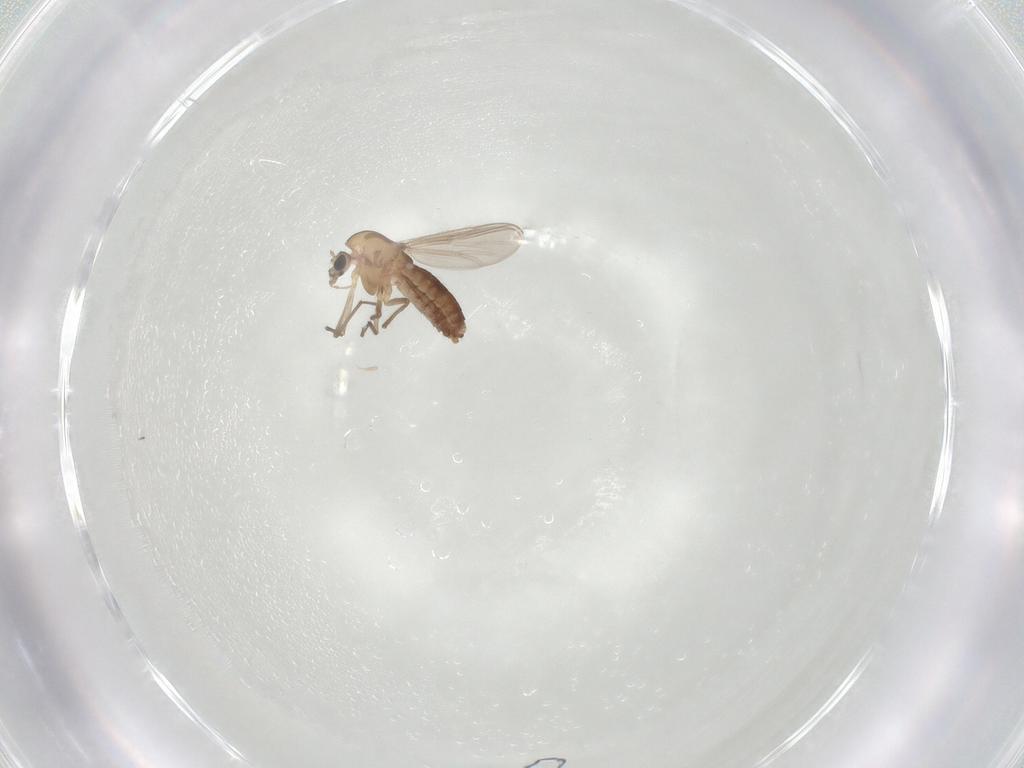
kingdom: Animalia
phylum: Arthropoda
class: Insecta
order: Diptera
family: Chironomidae
